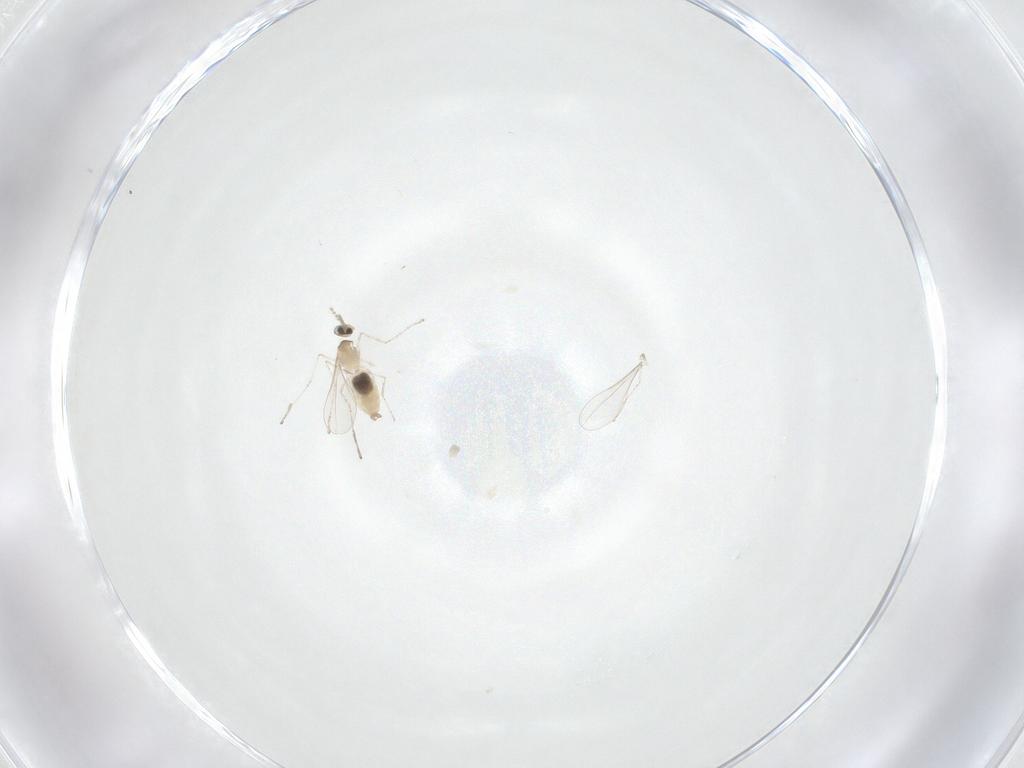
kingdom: Animalia
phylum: Arthropoda
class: Insecta
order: Diptera
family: Cecidomyiidae
